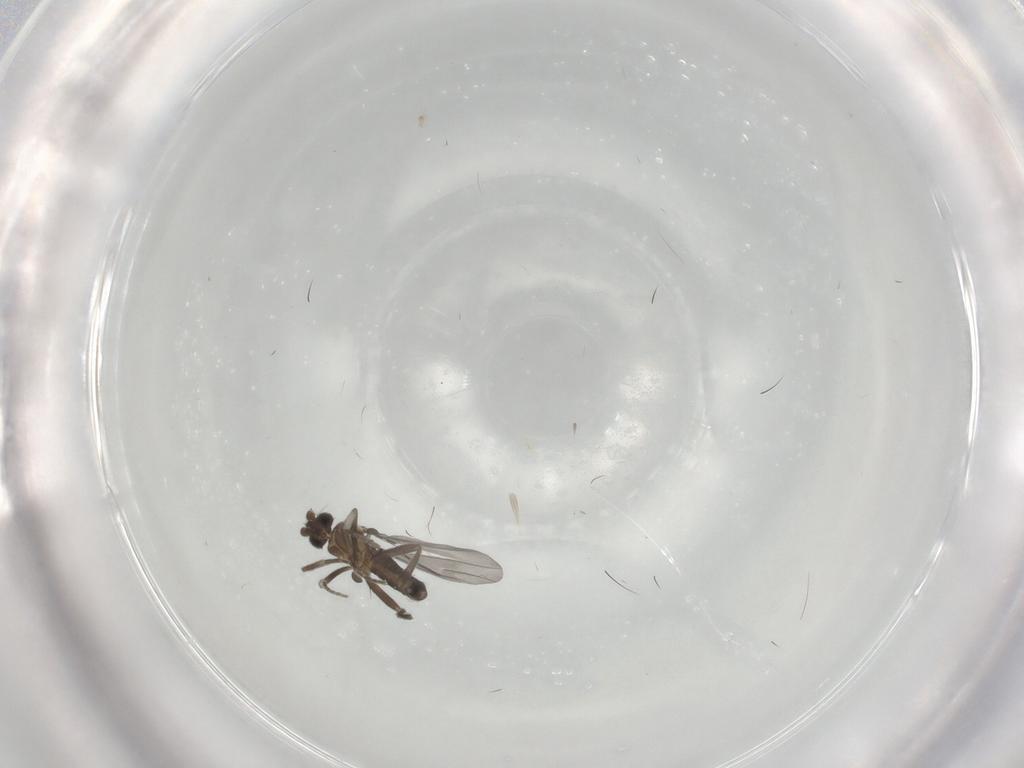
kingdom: Animalia
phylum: Arthropoda
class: Insecta
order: Diptera
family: Phoridae
